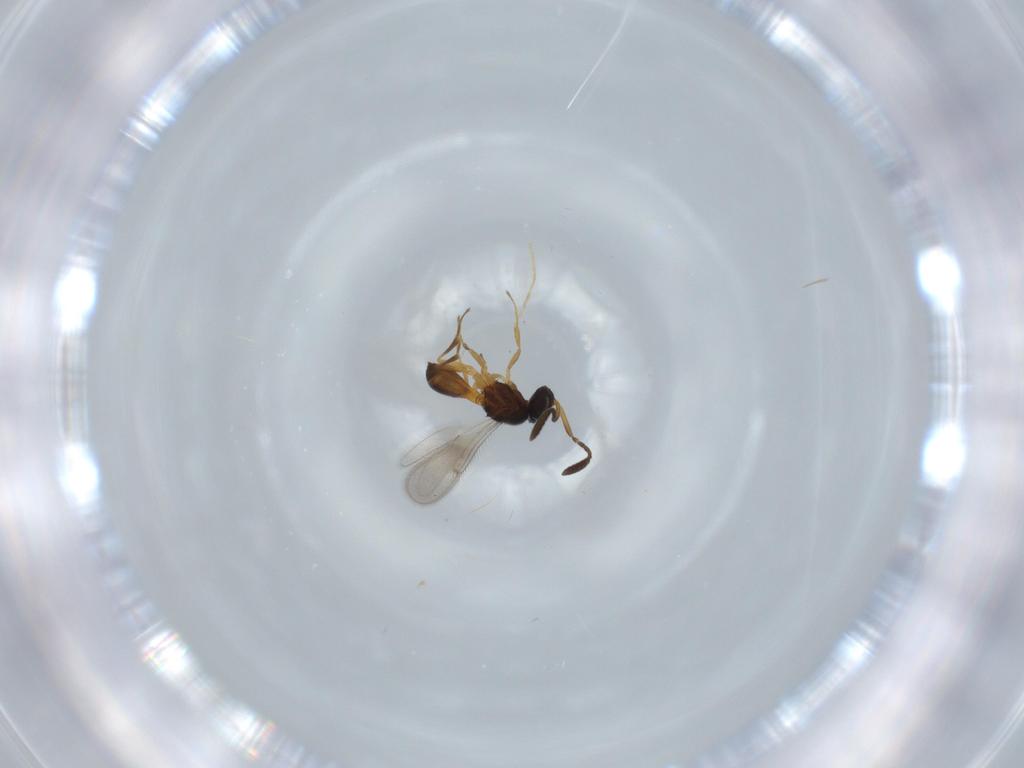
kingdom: Animalia
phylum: Arthropoda
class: Insecta
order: Hymenoptera
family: Scelionidae
